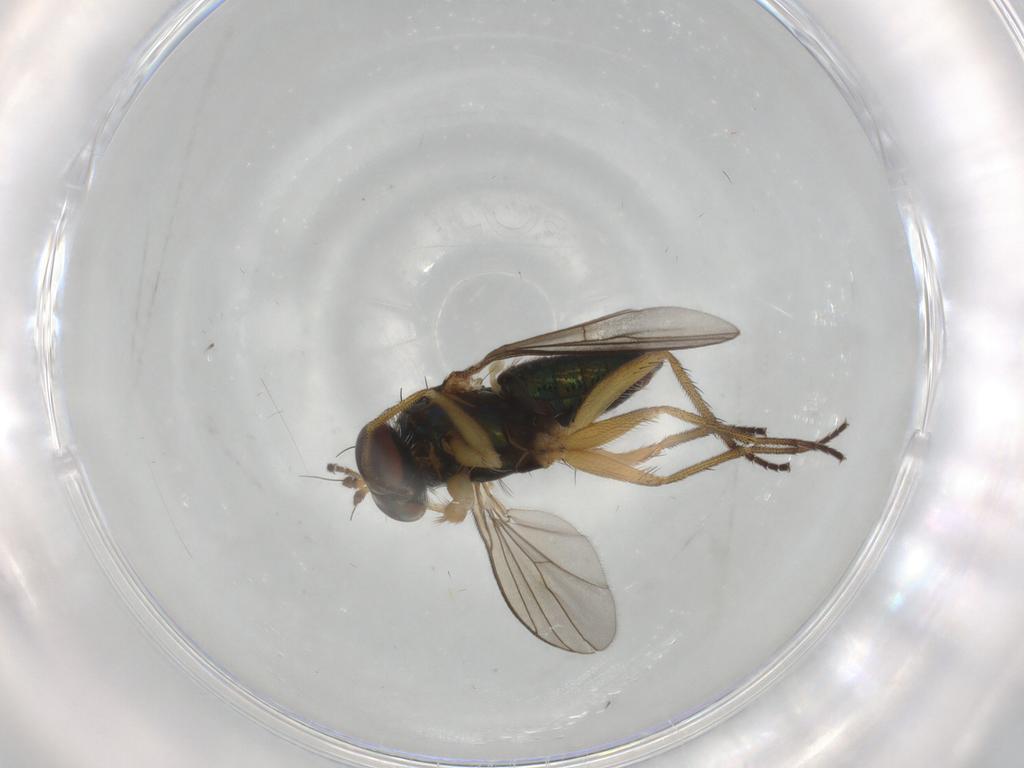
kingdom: Animalia
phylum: Arthropoda
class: Insecta
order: Diptera
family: Dolichopodidae
